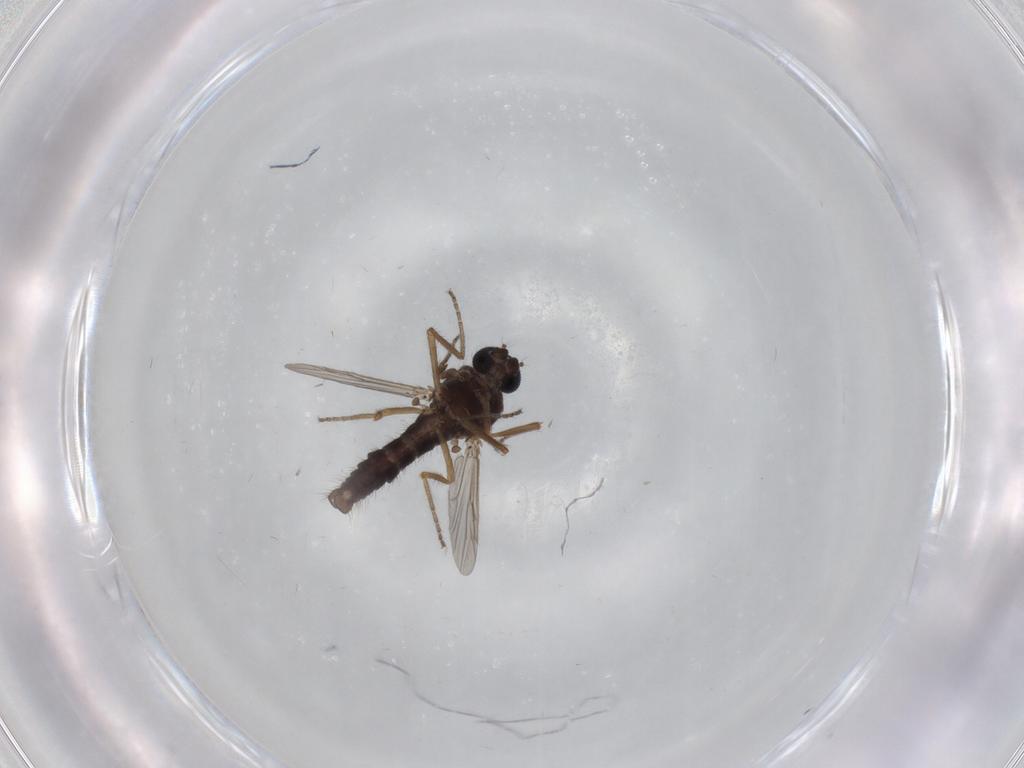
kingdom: Animalia
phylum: Arthropoda
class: Insecta
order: Diptera
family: Ceratopogonidae
